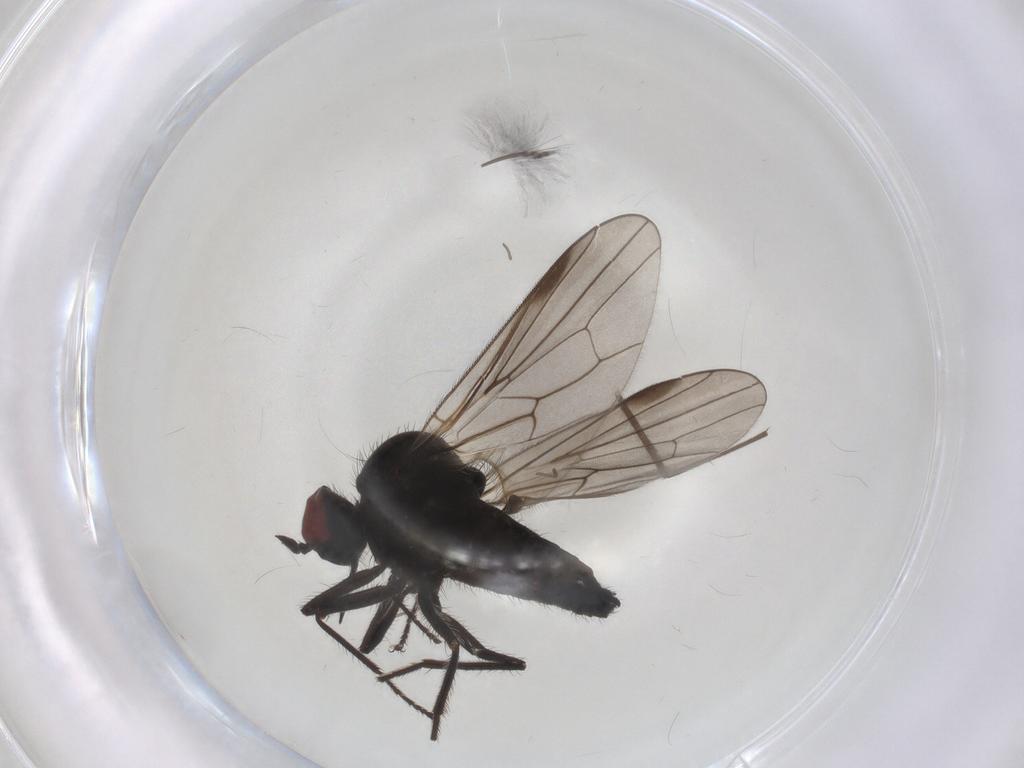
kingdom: Animalia
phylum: Arthropoda
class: Insecta
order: Diptera
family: Hybotidae
